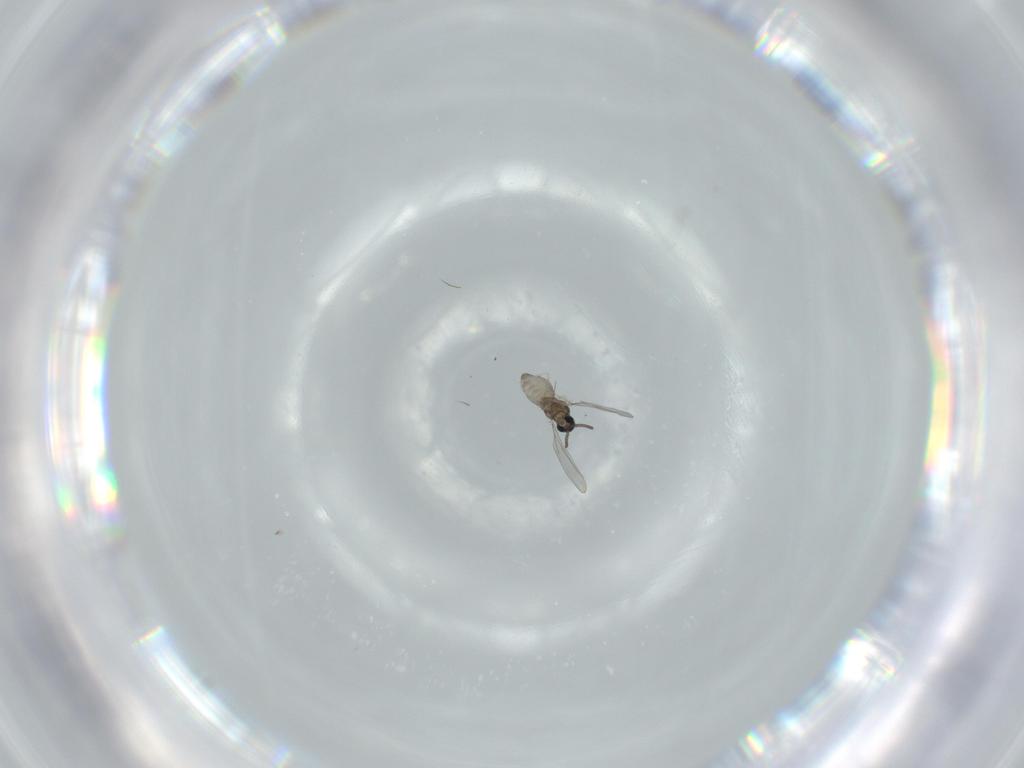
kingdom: Animalia
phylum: Arthropoda
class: Insecta
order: Diptera
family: Cecidomyiidae
